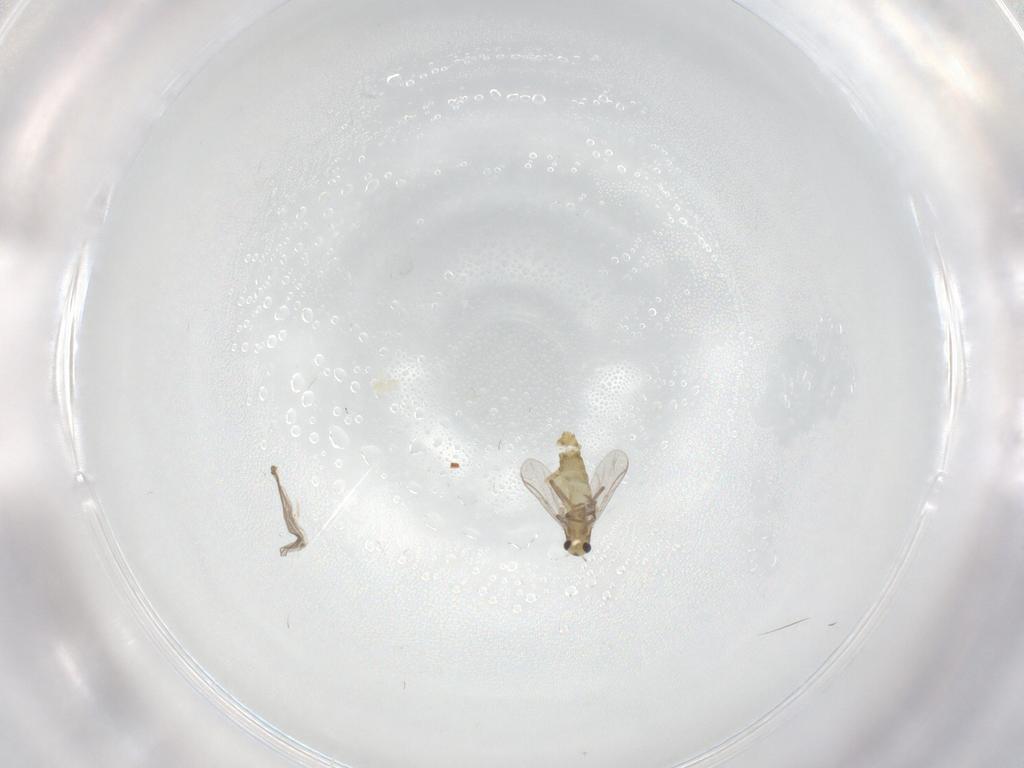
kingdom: Animalia
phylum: Arthropoda
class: Insecta
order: Diptera
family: Chironomidae
